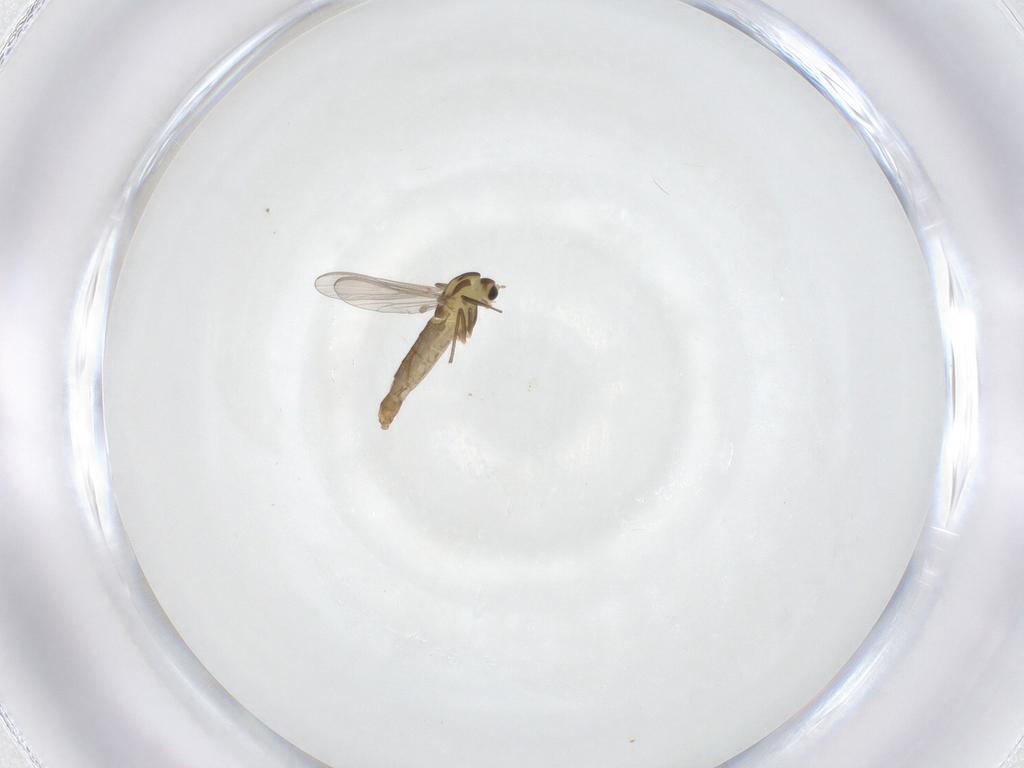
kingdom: Animalia
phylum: Arthropoda
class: Insecta
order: Diptera
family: Chironomidae
